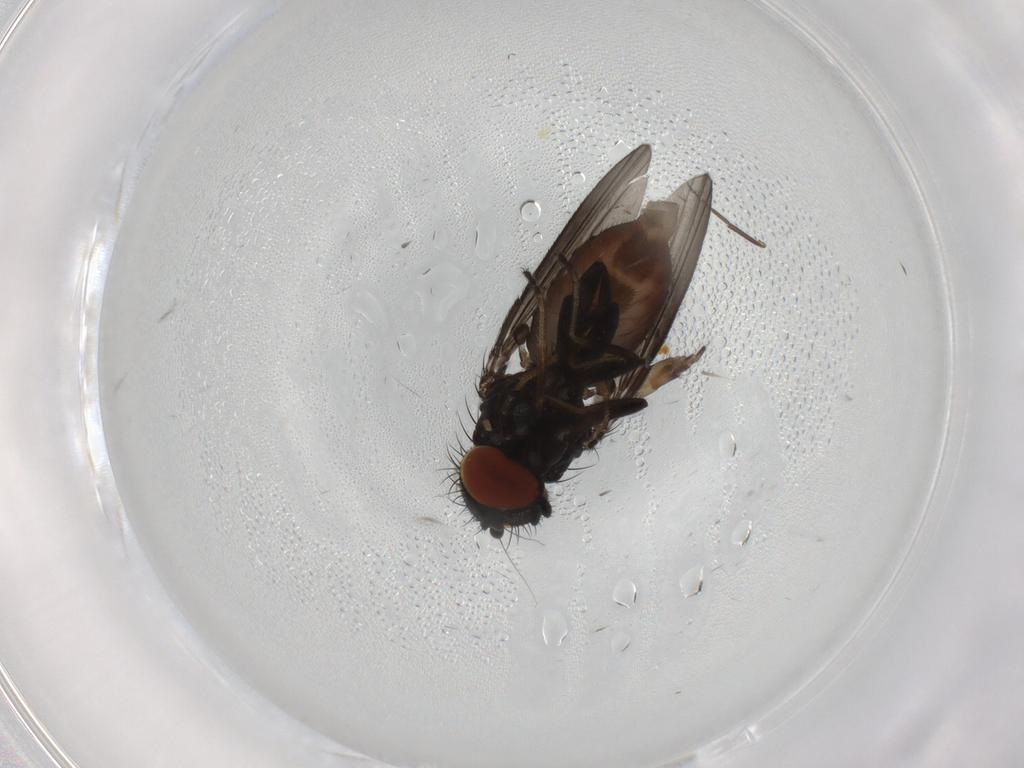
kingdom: Animalia
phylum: Arthropoda
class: Insecta
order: Diptera
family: Milichiidae
